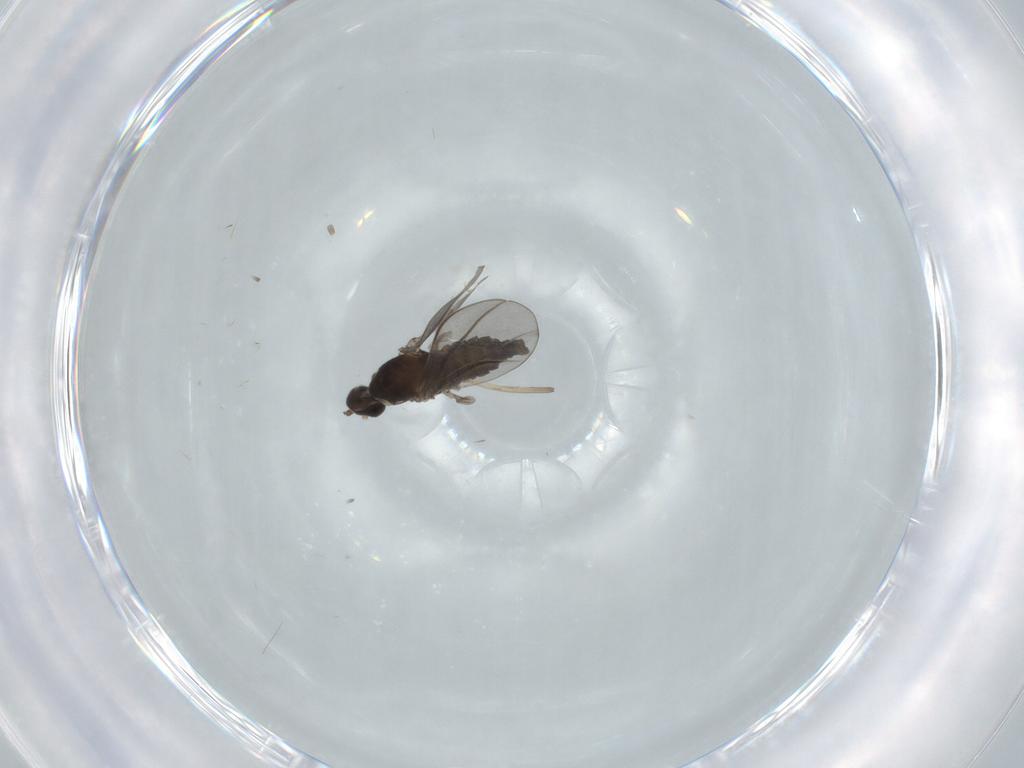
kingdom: Animalia
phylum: Arthropoda
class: Insecta
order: Diptera
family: Cecidomyiidae
